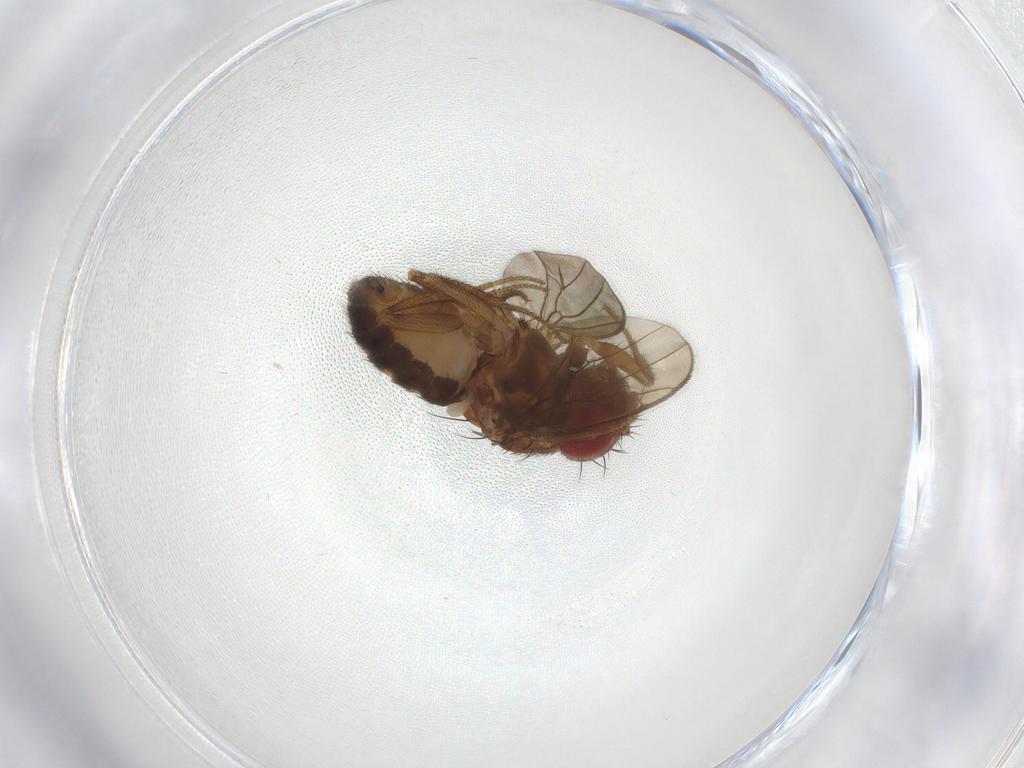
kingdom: Animalia
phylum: Arthropoda
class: Insecta
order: Diptera
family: Drosophilidae
